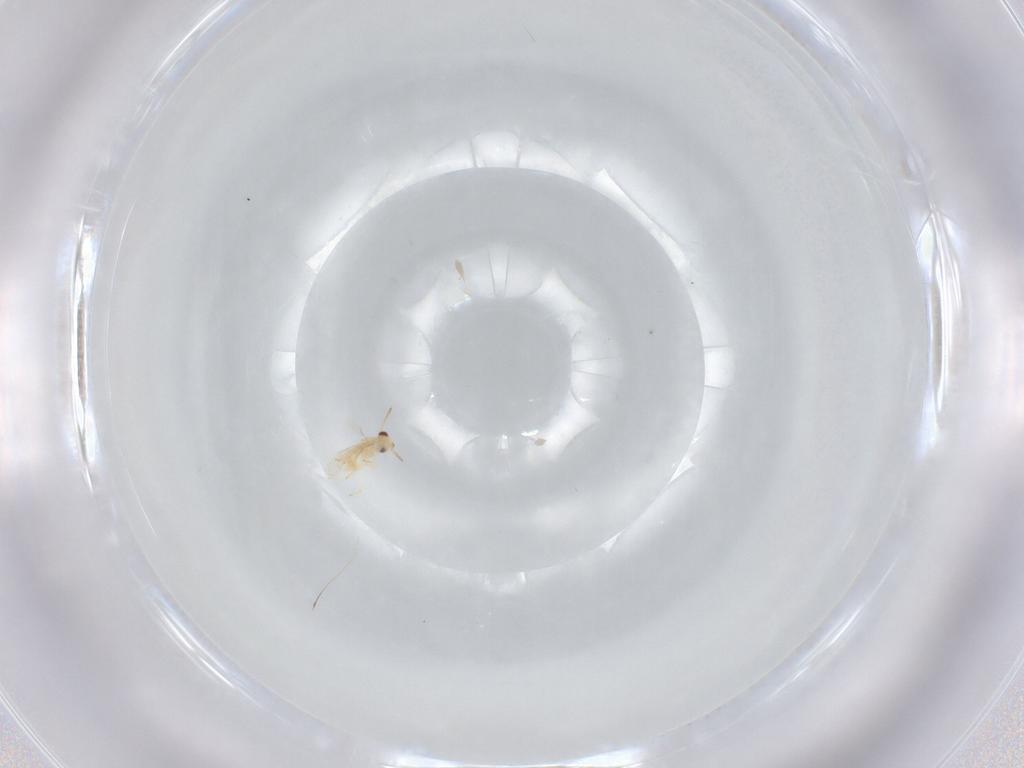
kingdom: Animalia
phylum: Arthropoda
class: Insecta
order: Hymenoptera
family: Aphelinidae
